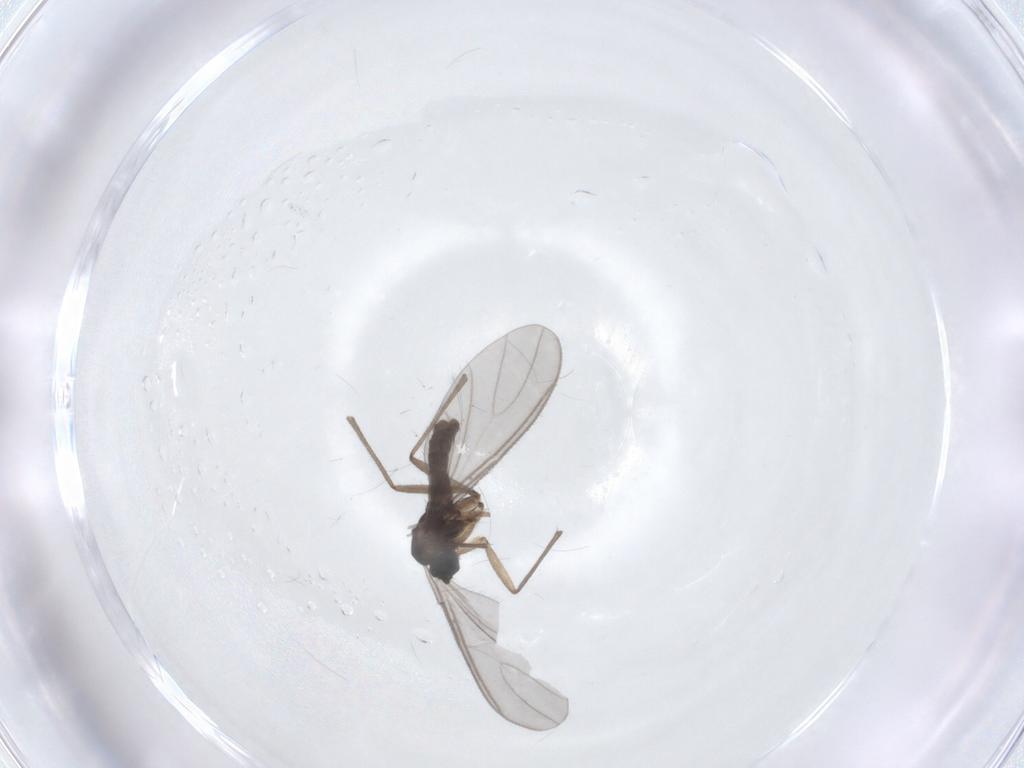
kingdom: Animalia
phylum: Arthropoda
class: Insecta
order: Diptera
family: Sciaridae
